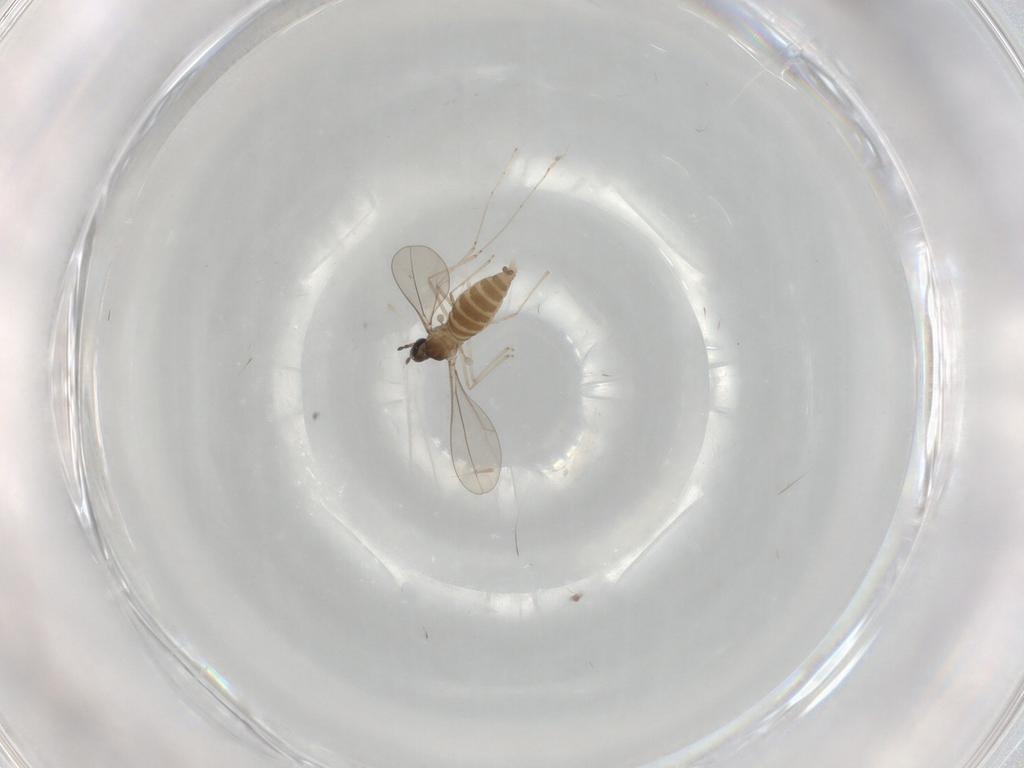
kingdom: Animalia
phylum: Arthropoda
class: Insecta
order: Diptera
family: Cecidomyiidae
